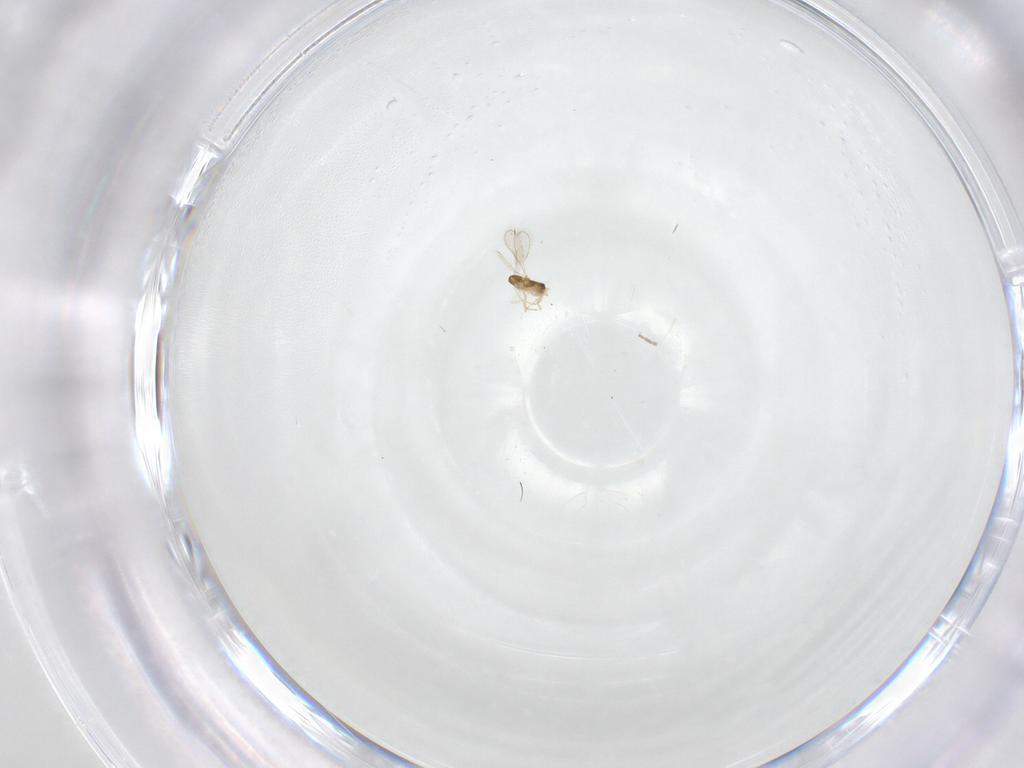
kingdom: Animalia
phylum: Arthropoda
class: Insecta
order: Hymenoptera
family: Aphelinidae
